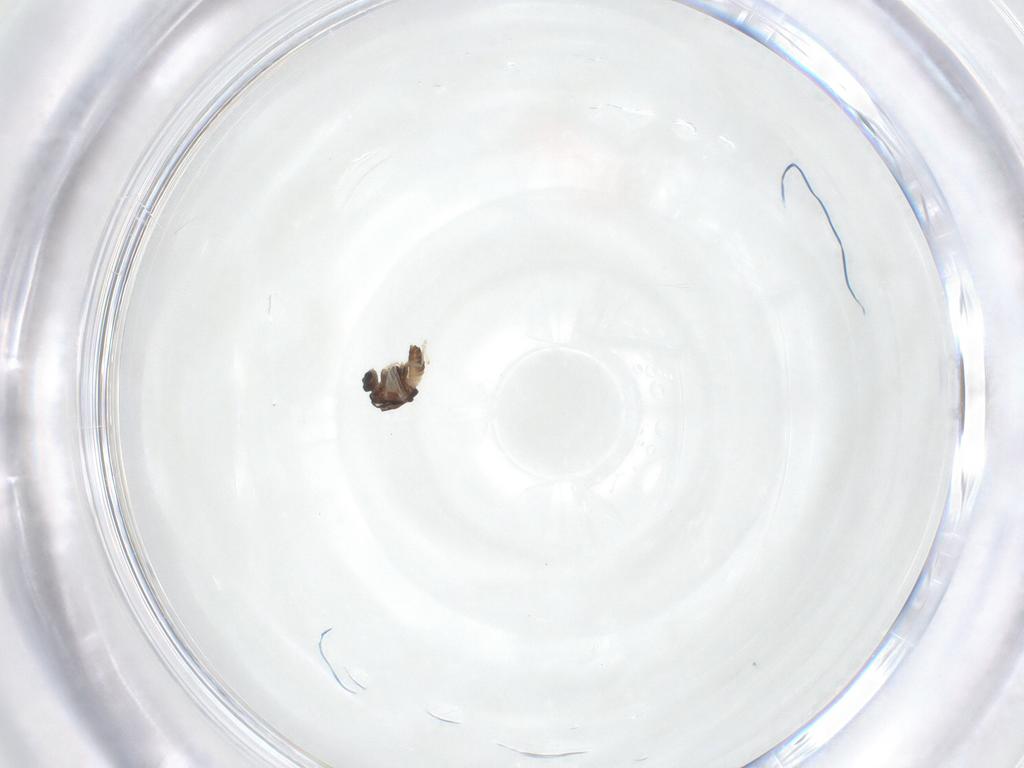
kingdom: Animalia
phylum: Arthropoda
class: Insecta
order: Diptera
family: Chironomidae
